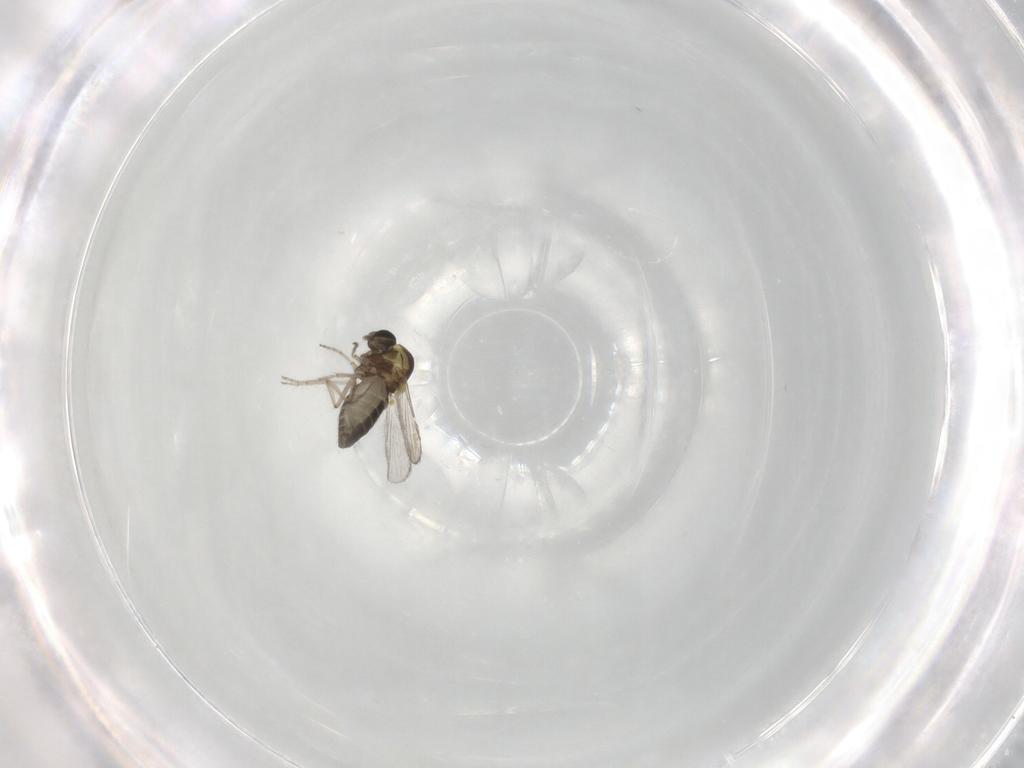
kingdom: Animalia
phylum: Arthropoda
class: Insecta
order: Diptera
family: Ceratopogonidae
